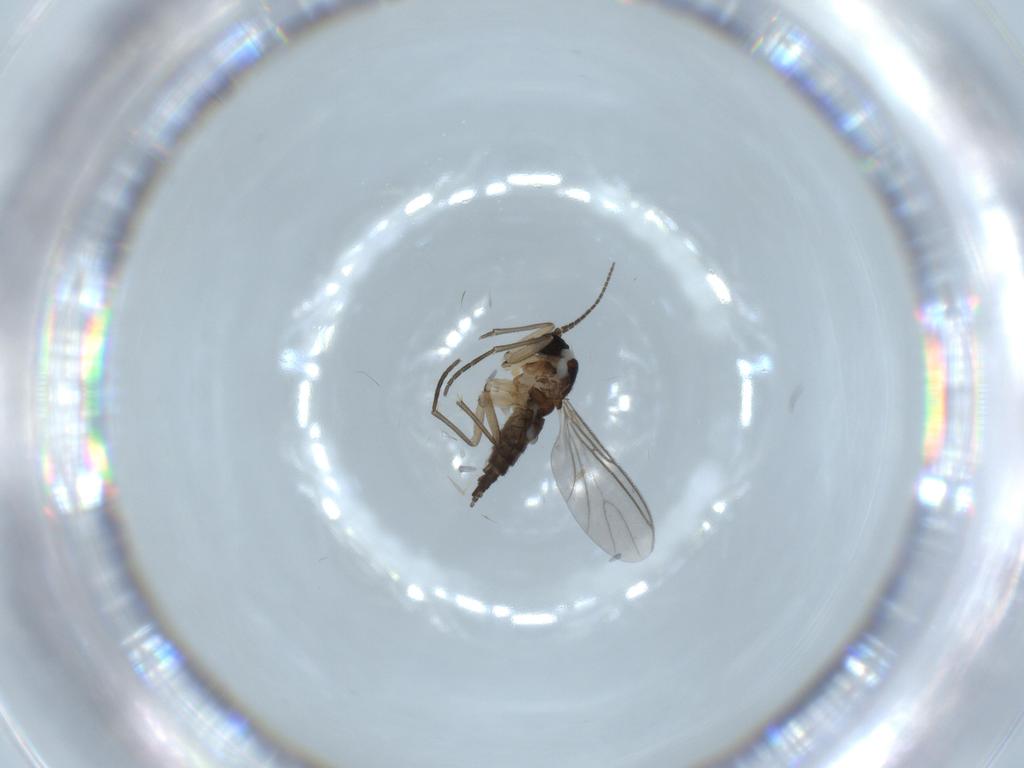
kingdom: Animalia
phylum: Arthropoda
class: Insecta
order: Diptera
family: Sciaridae
